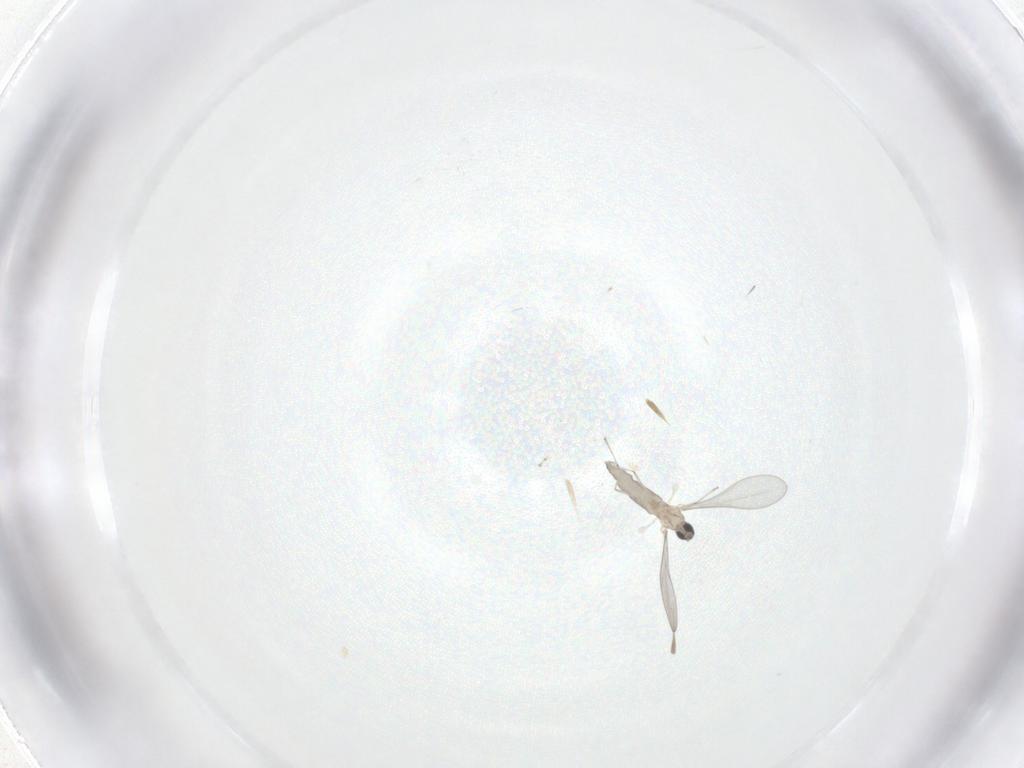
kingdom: Animalia
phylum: Arthropoda
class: Insecta
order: Diptera
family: Cecidomyiidae
